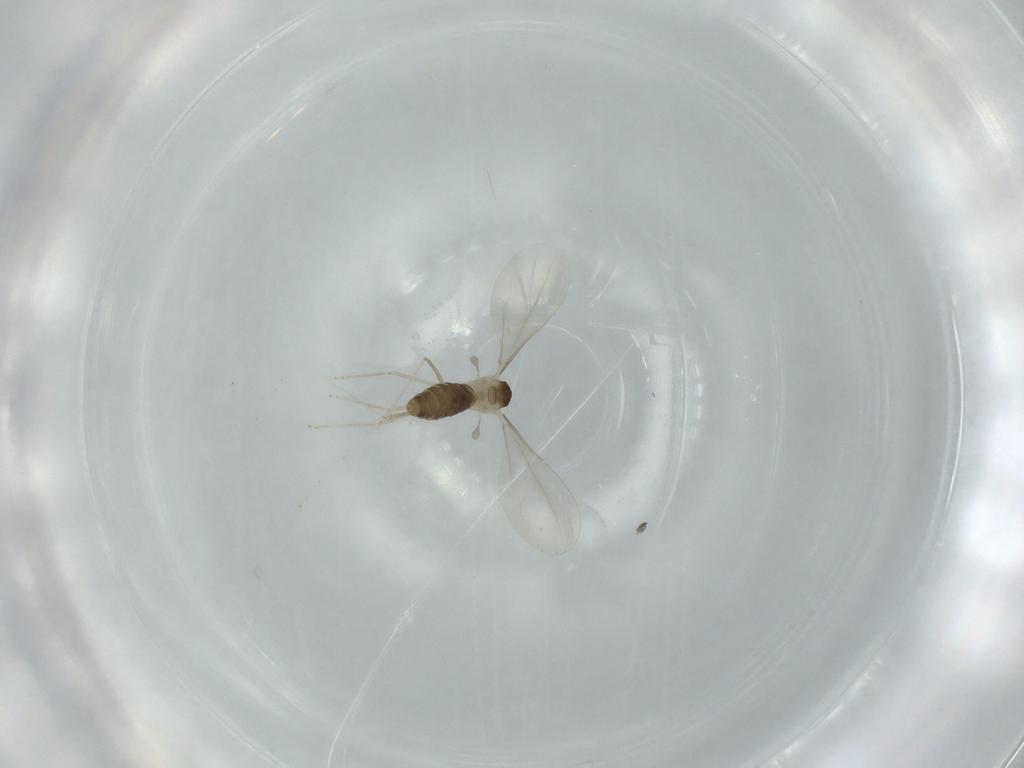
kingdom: Animalia
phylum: Arthropoda
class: Insecta
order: Diptera
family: Cecidomyiidae
